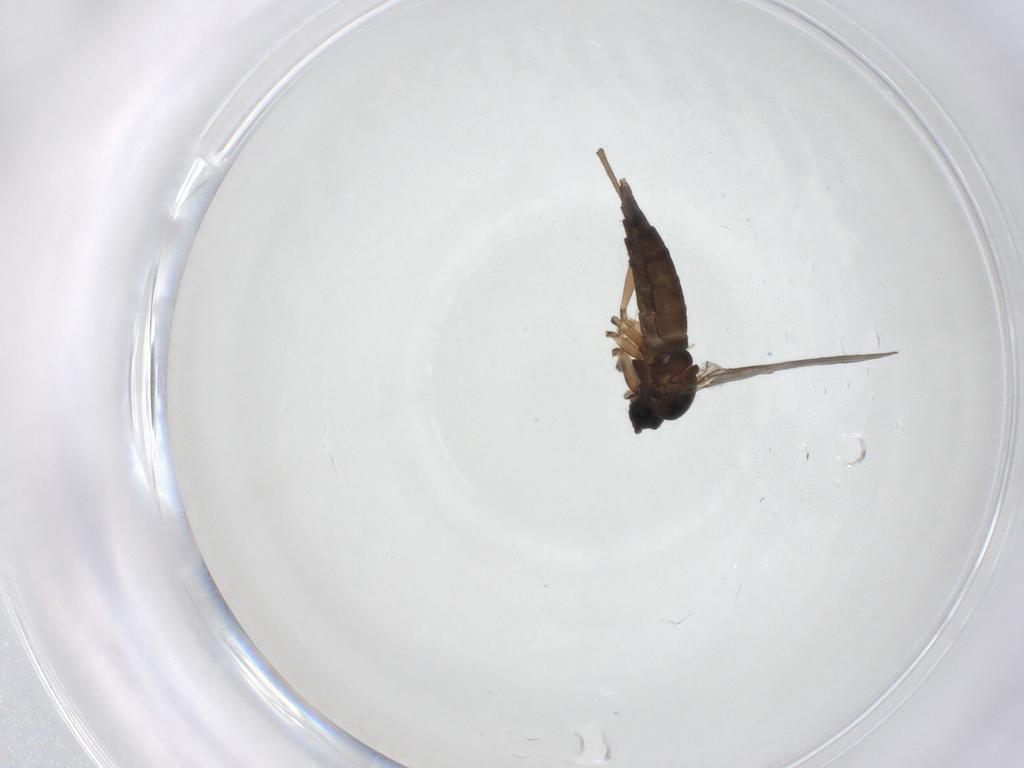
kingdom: Animalia
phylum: Arthropoda
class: Insecta
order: Diptera
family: Sciaridae
